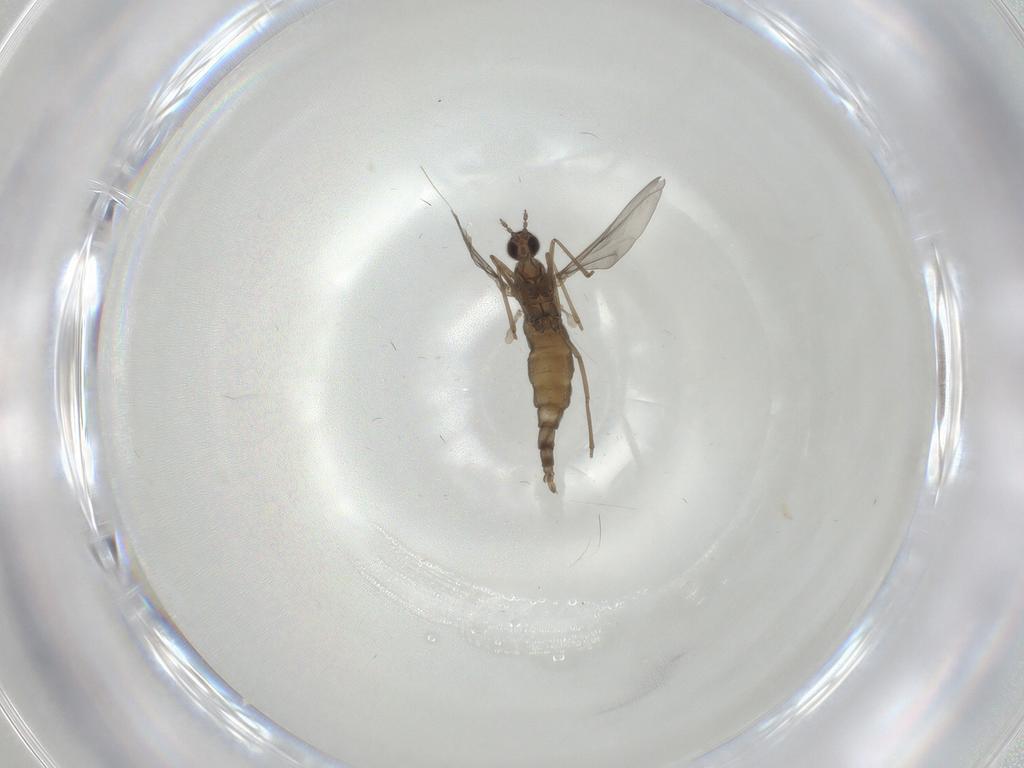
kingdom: Animalia
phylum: Arthropoda
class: Insecta
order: Diptera
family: Cecidomyiidae
